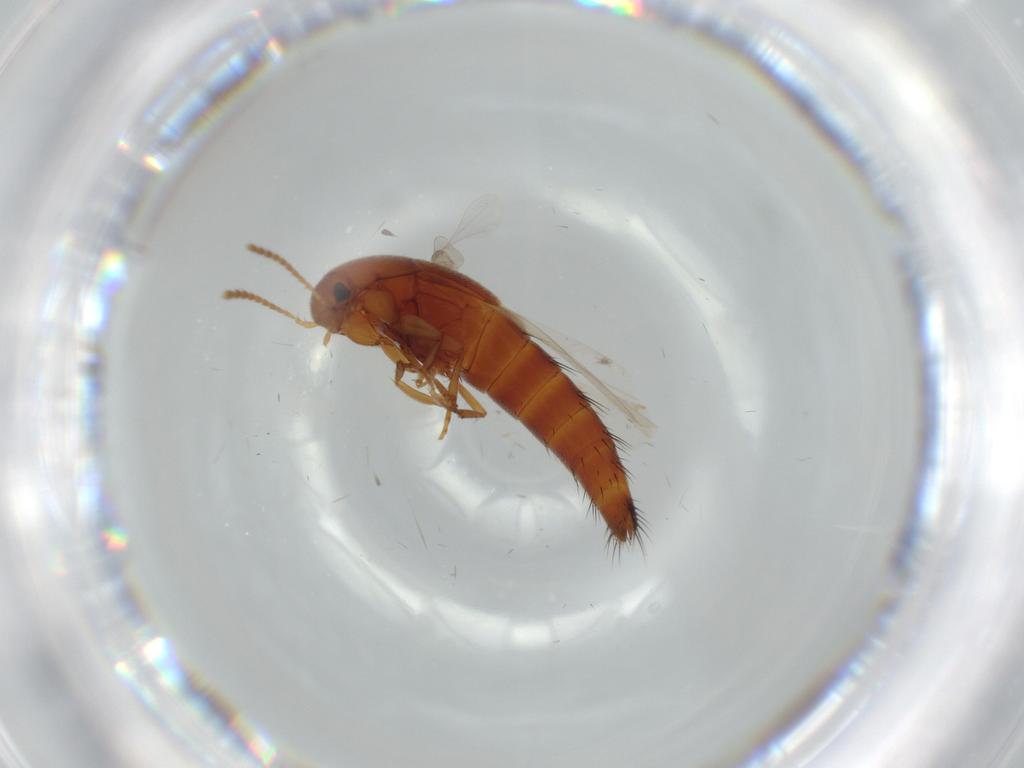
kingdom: Animalia
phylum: Arthropoda
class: Insecta
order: Coleoptera
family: Staphylinidae
